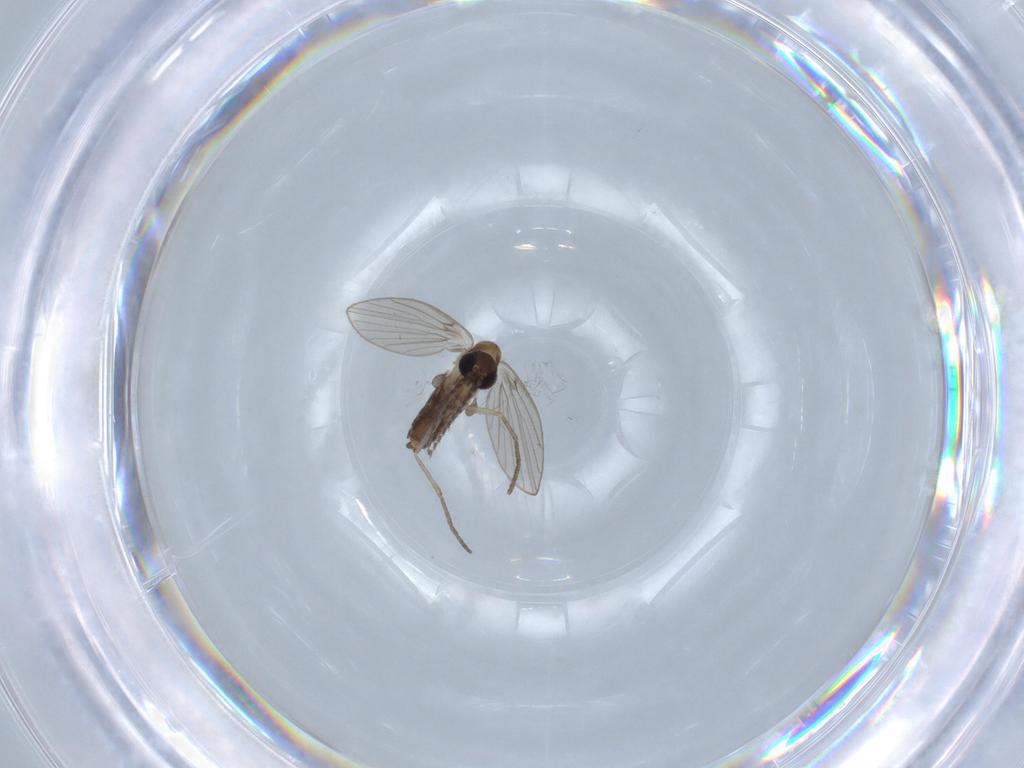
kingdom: Animalia
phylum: Arthropoda
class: Insecta
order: Diptera
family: Psychodidae
